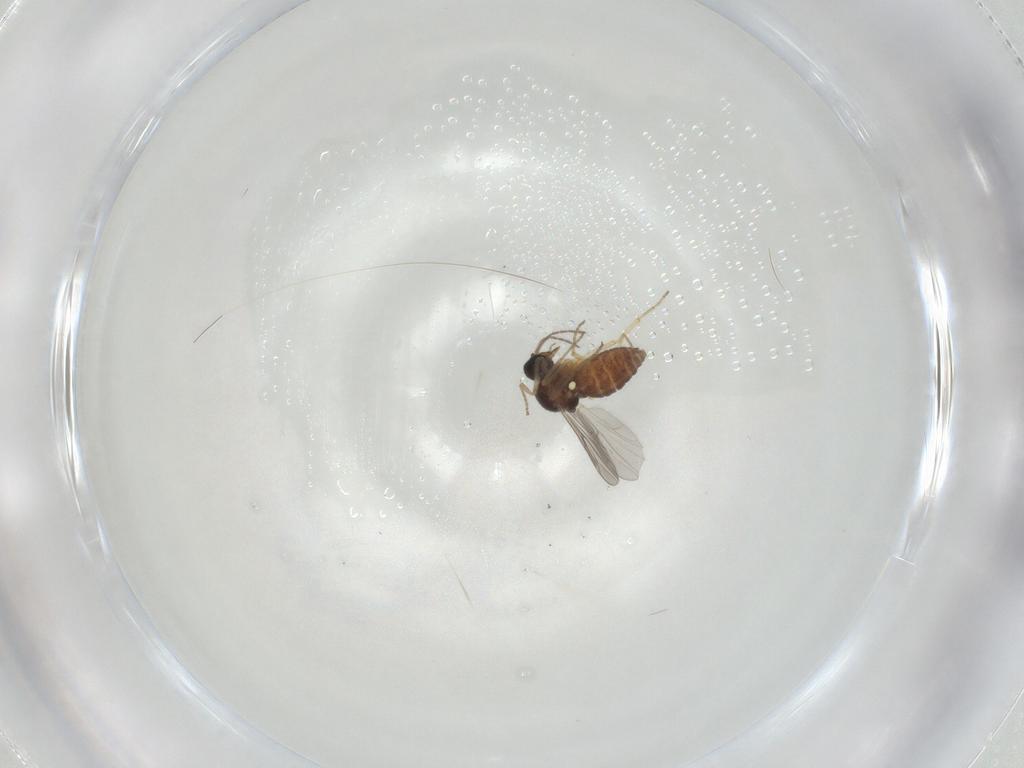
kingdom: Animalia
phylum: Arthropoda
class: Insecta
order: Diptera
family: Ceratopogonidae
